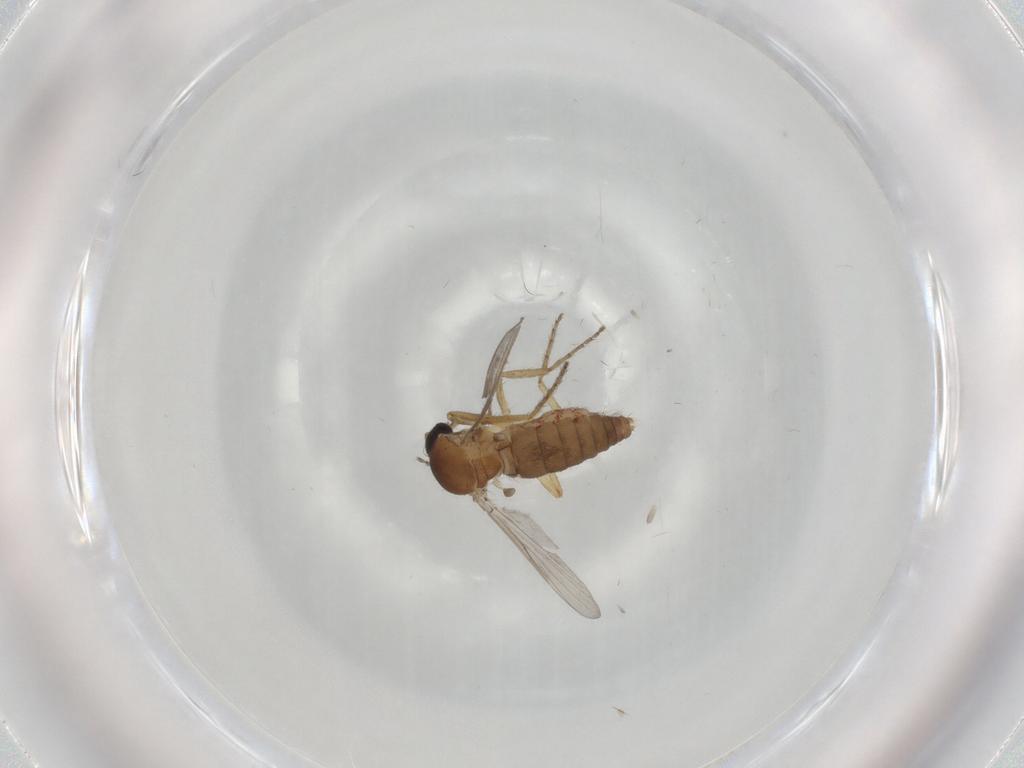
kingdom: Animalia
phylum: Arthropoda
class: Insecta
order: Diptera
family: Ceratopogonidae
